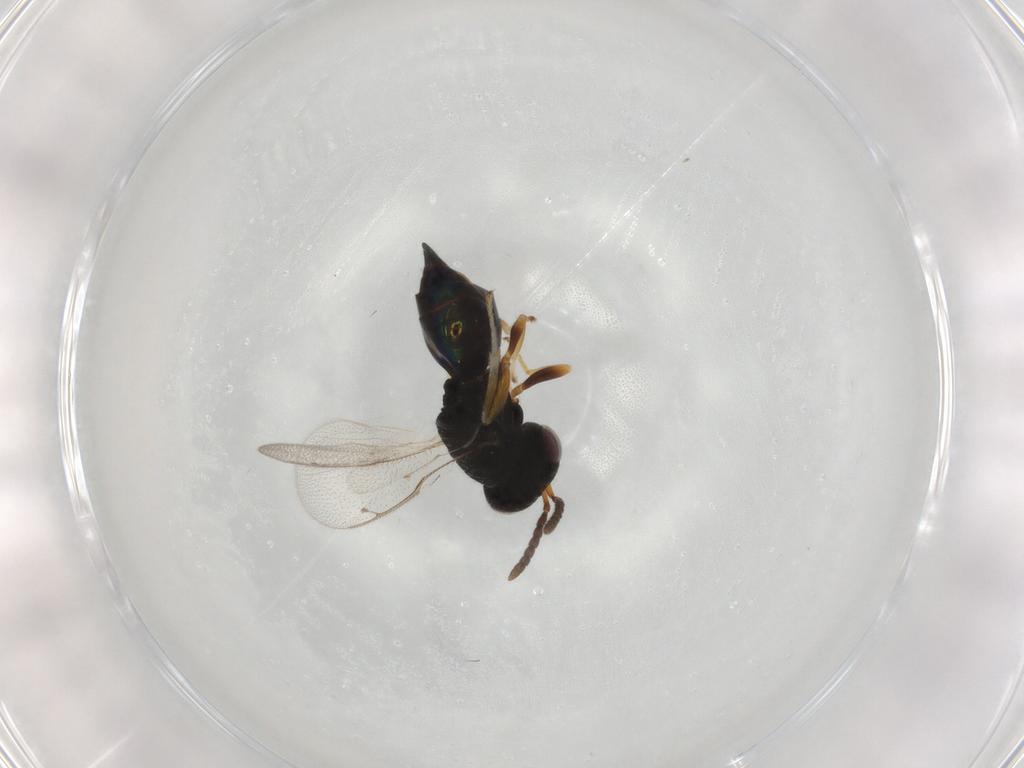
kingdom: Animalia
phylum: Arthropoda
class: Insecta
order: Hymenoptera
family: Pteromalidae
